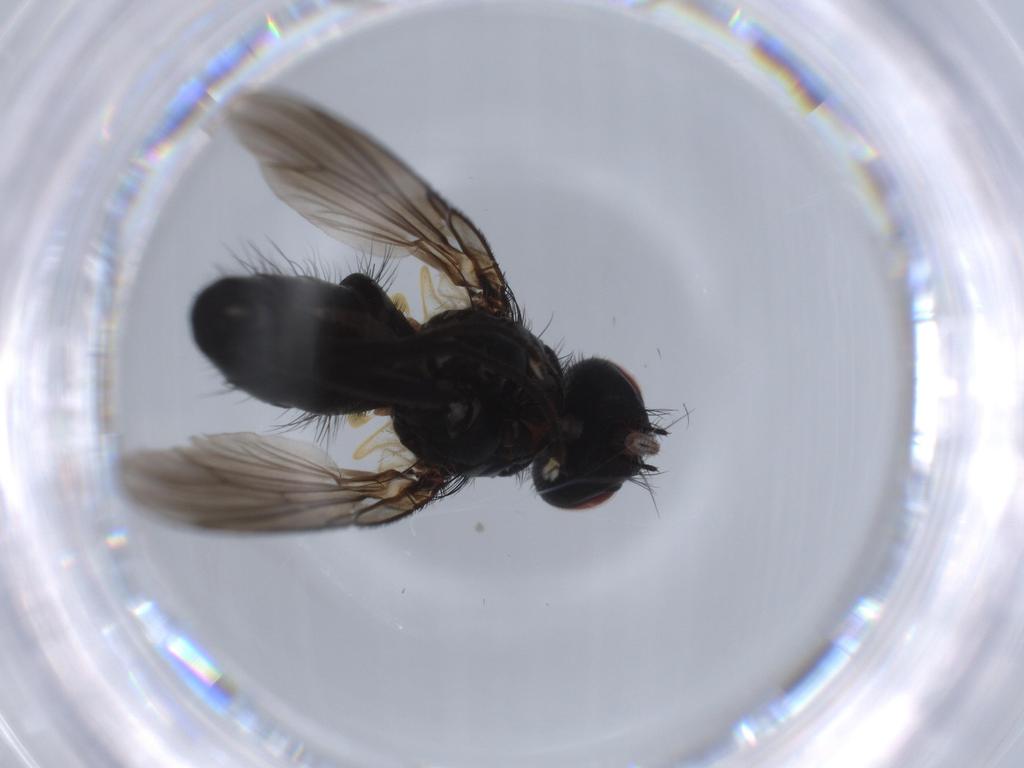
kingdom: Animalia
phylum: Arthropoda
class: Insecta
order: Diptera
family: Muscidae
